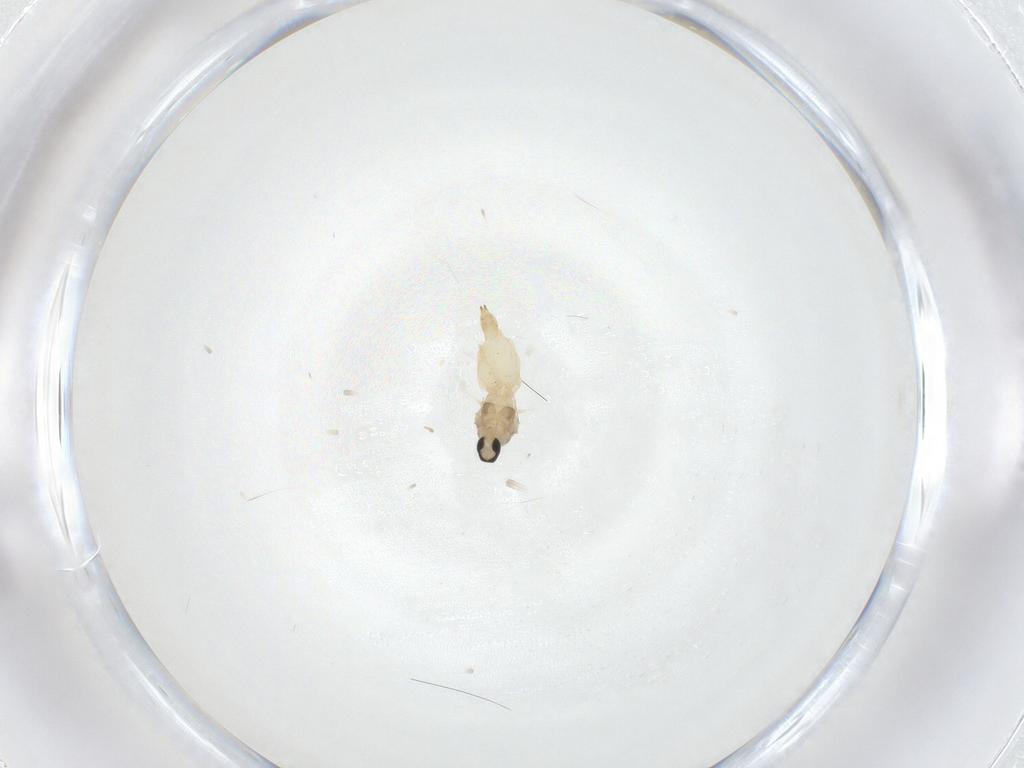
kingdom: Animalia
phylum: Arthropoda
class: Insecta
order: Diptera
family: Cecidomyiidae
